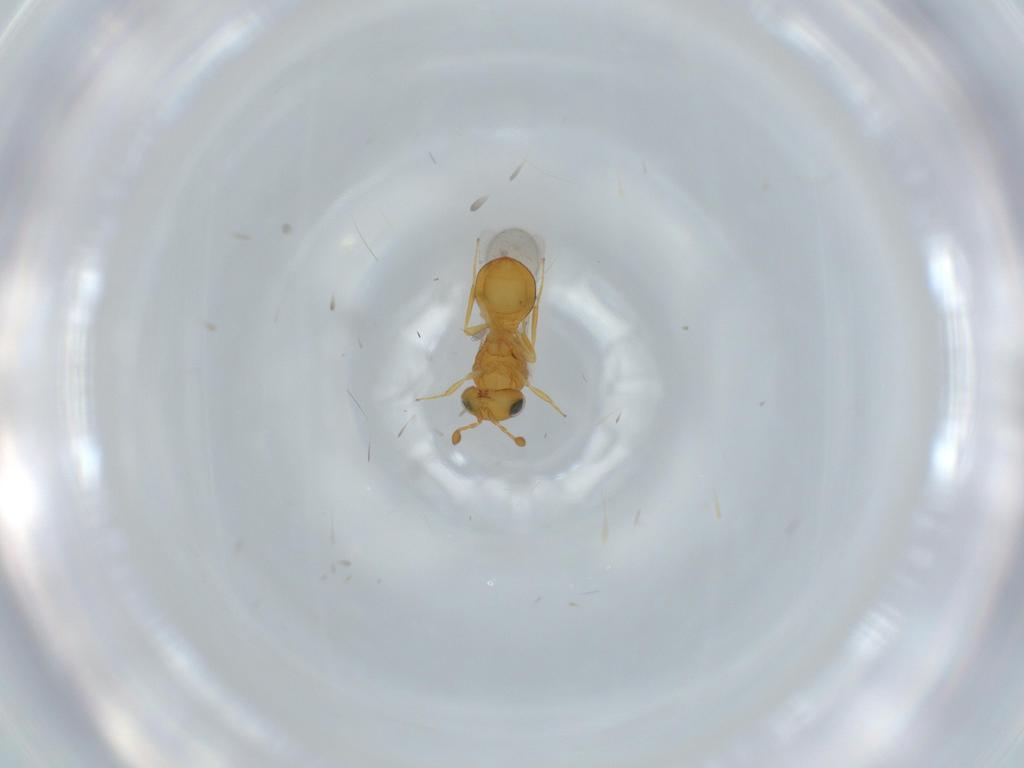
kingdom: Animalia
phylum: Arthropoda
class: Insecta
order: Hymenoptera
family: Scelionidae
